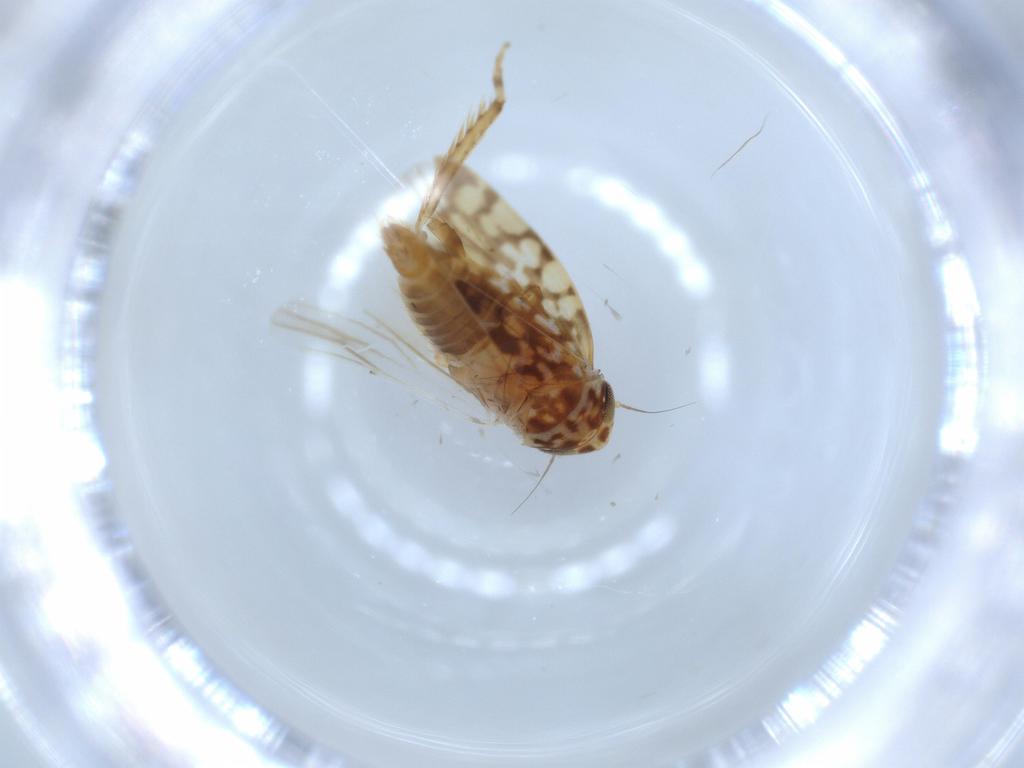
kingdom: Animalia
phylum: Arthropoda
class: Insecta
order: Hemiptera
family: Cicadellidae
